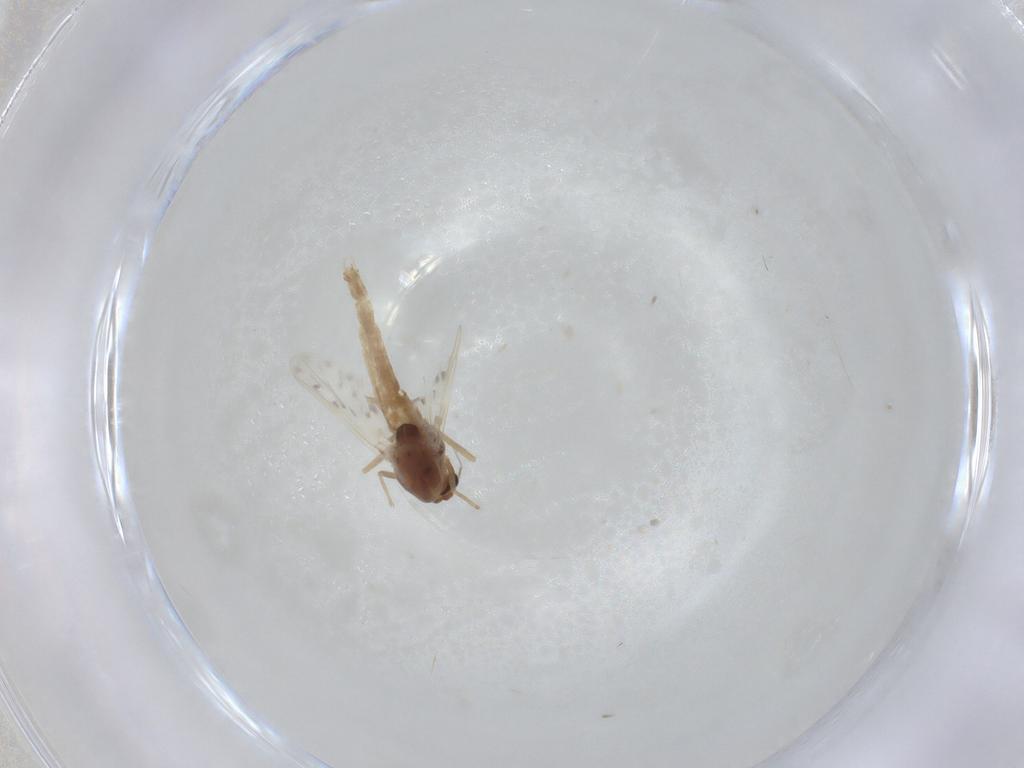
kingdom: Animalia
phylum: Arthropoda
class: Insecta
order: Diptera
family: Chironomidae
